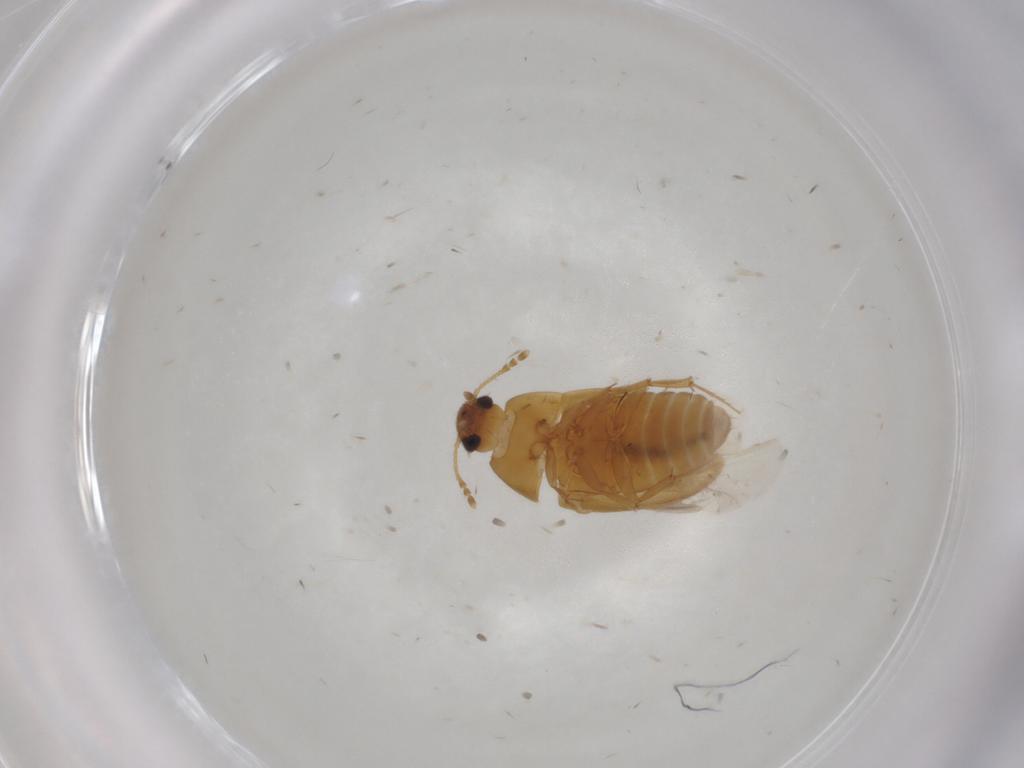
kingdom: Animalia
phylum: Arthropoda
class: Insecta
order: Coleoptera
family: Mycetophagidae
